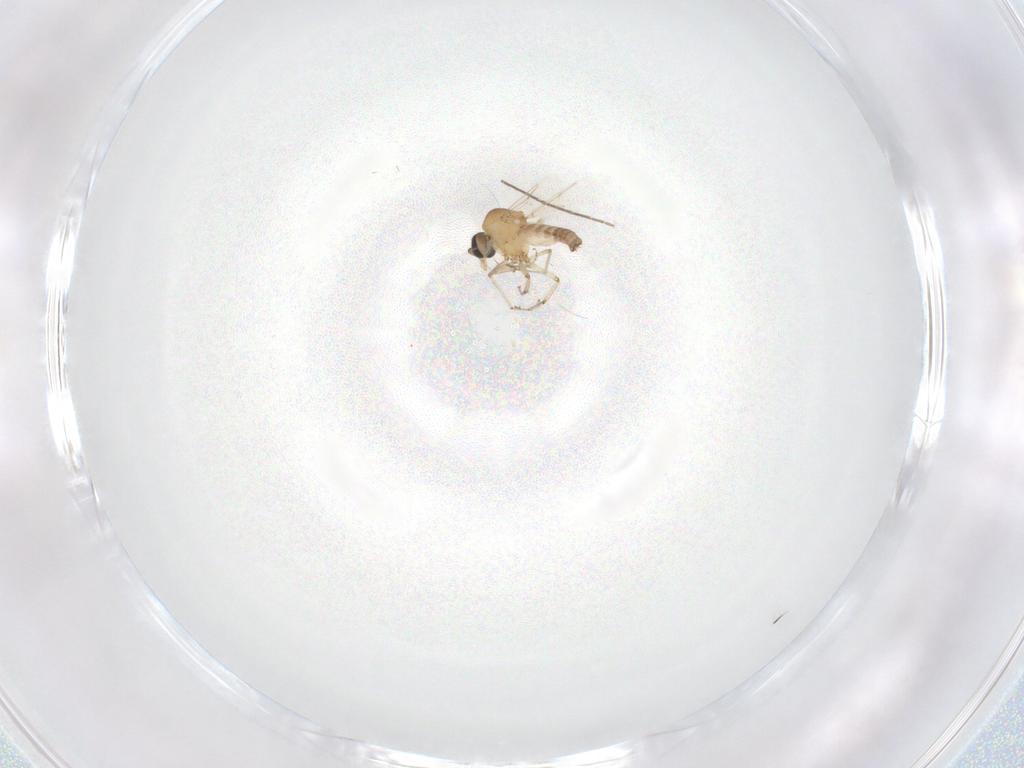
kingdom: Animalia
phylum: Arthropoda
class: Insecta
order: Diptera
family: Ceratopogonidae
